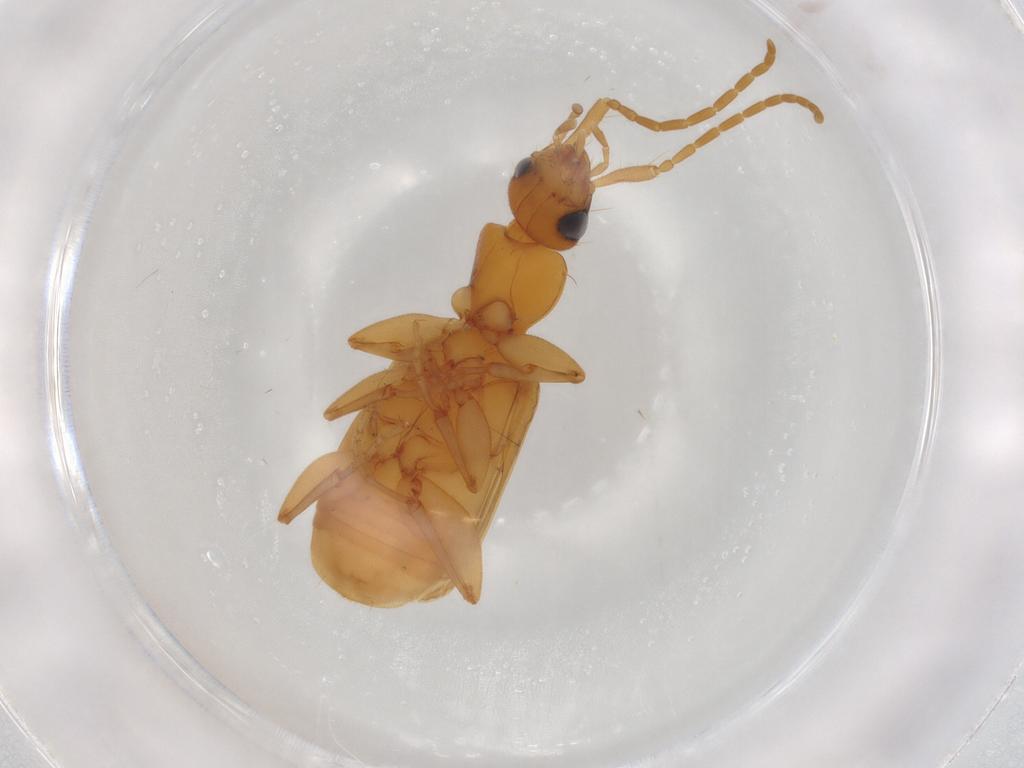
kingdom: Animalia
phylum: Arthropoda
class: Insecta
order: Coleoptera
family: Carabidae
